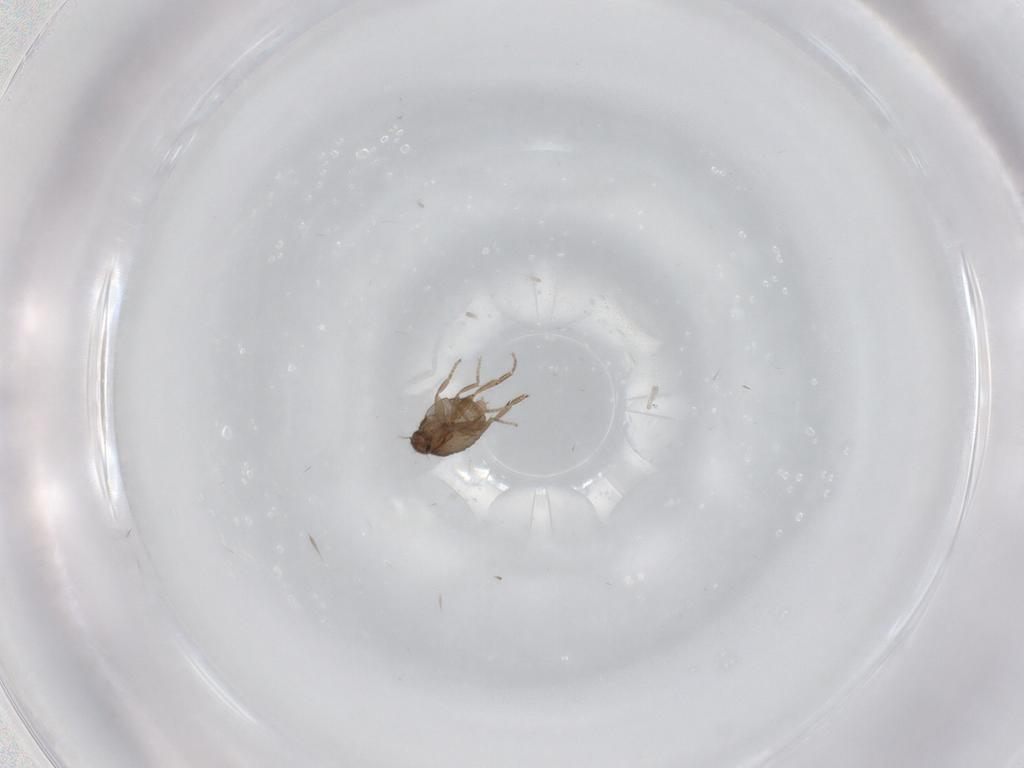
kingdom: Animalia
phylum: Arthropoda
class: Insecta
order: Diptera
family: Phoridae
